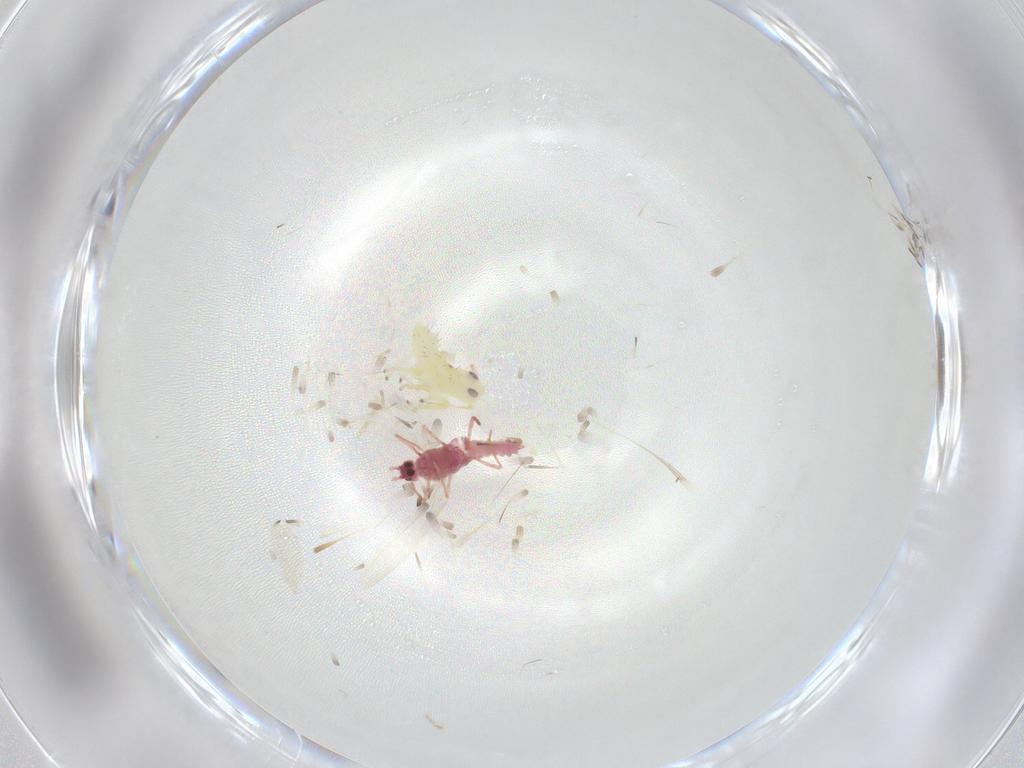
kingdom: Animalia
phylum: Arthropoda
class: Insecta
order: Hemiptera
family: Cicadellidae
